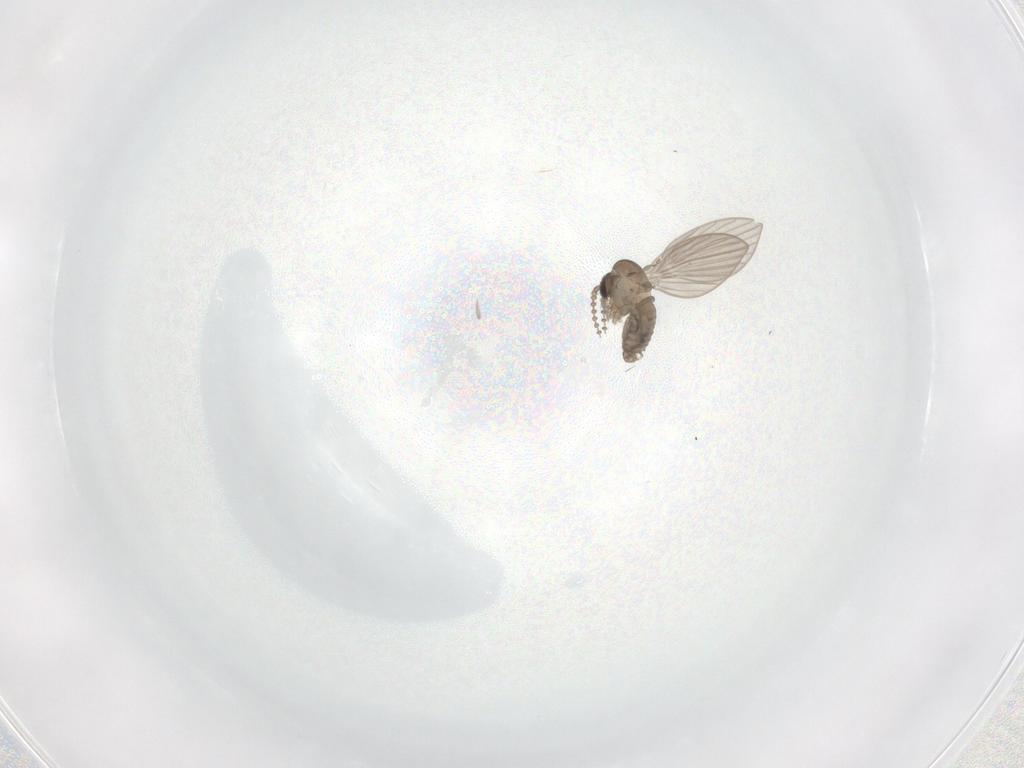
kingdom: Animalia
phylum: Arthropoda
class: Insecta
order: Diptera
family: Psychodidae
